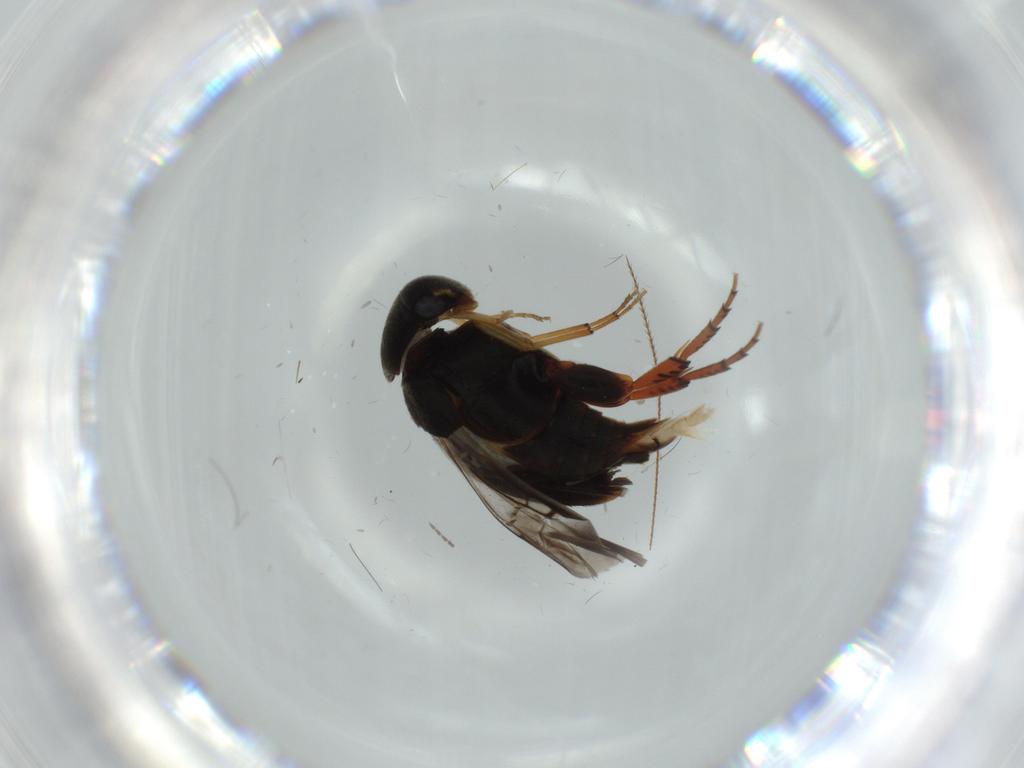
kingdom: Animalia
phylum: Arthropoda
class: Insecta
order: Coleoptera
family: Mordellidae
